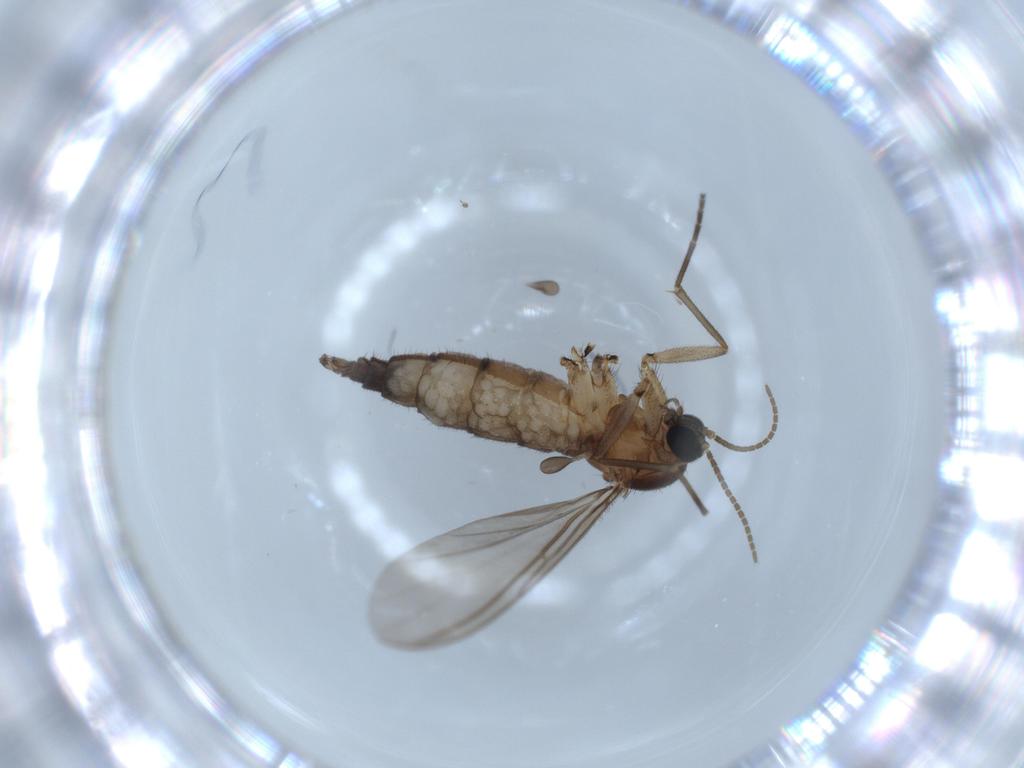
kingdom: Animalia
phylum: Arthropoda
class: Insecta
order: Diptera
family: Sciaridae
